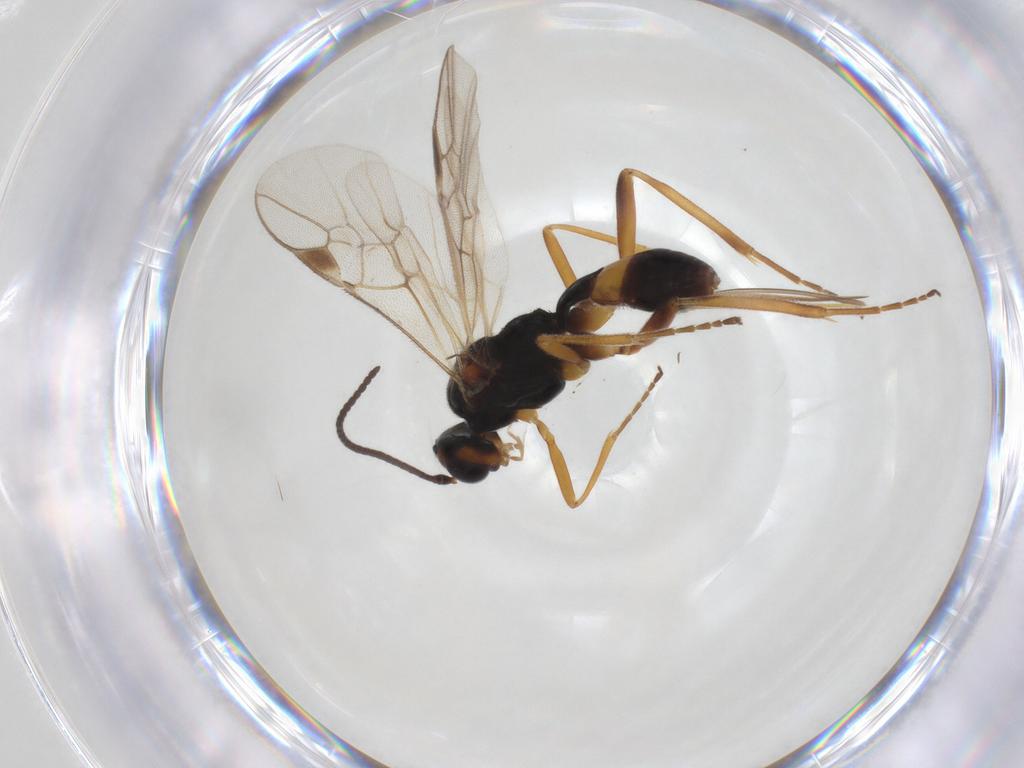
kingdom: Animalia
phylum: Arthropoda
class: Insecta
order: Hymenoptera
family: Braconidae
